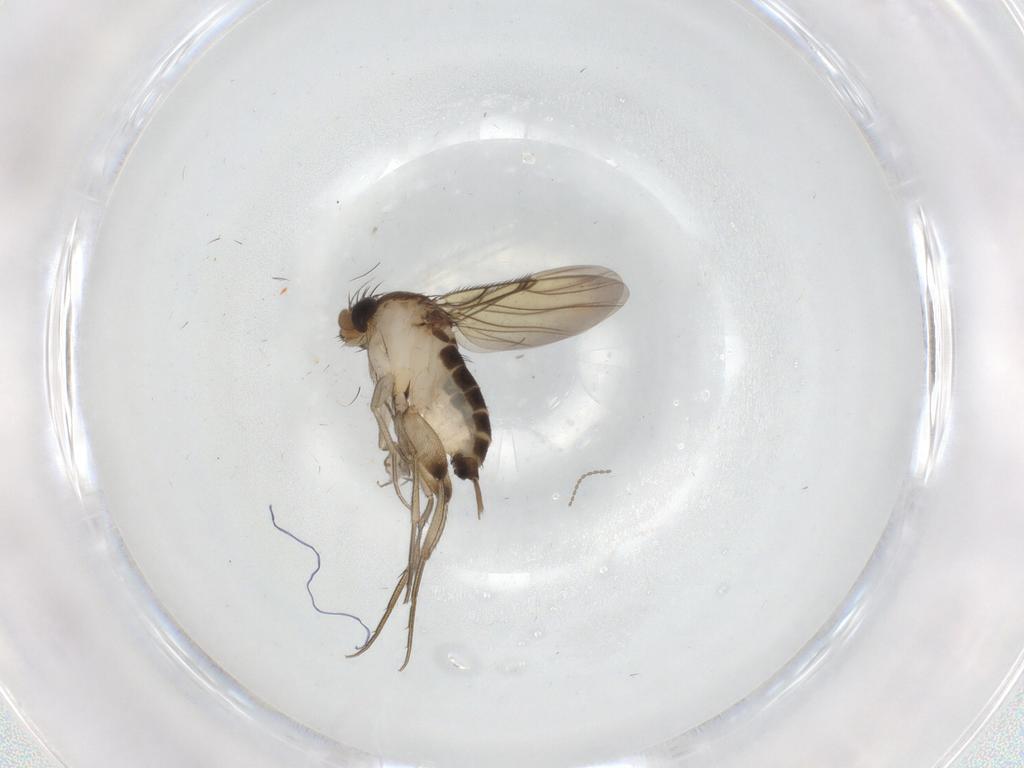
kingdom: Animalia
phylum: Arthropoda
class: Insecta
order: Diptera
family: Phoridae
